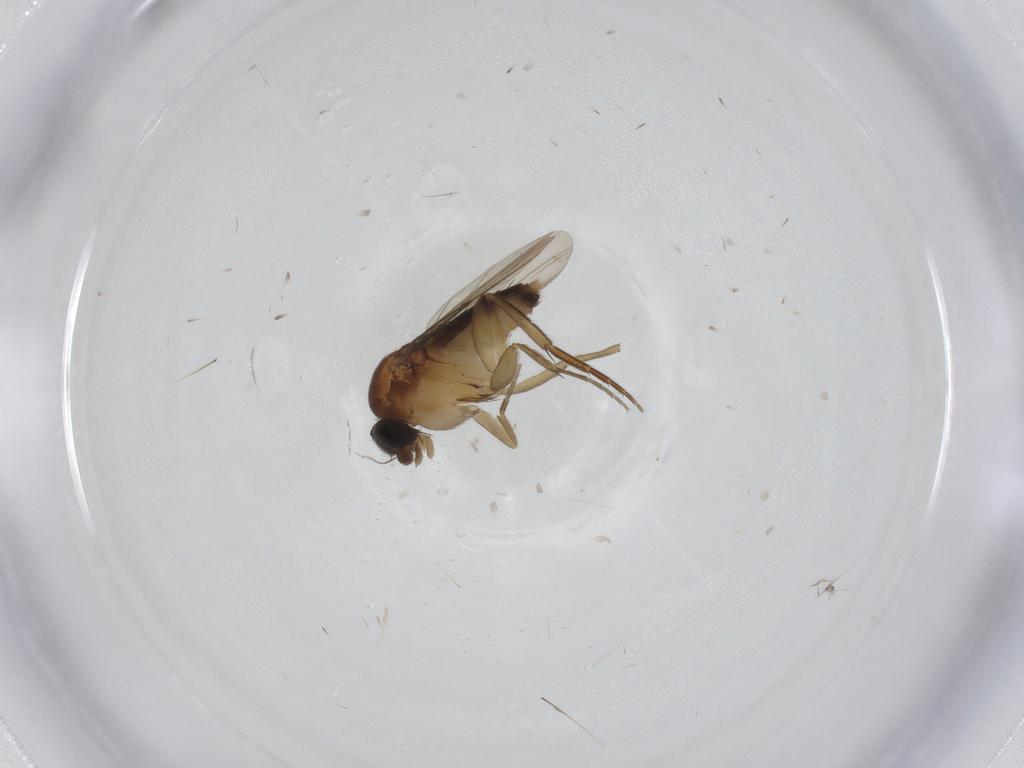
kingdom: Animalia
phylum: Arthropoda
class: Insecta
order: Diptera
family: Phoridae
